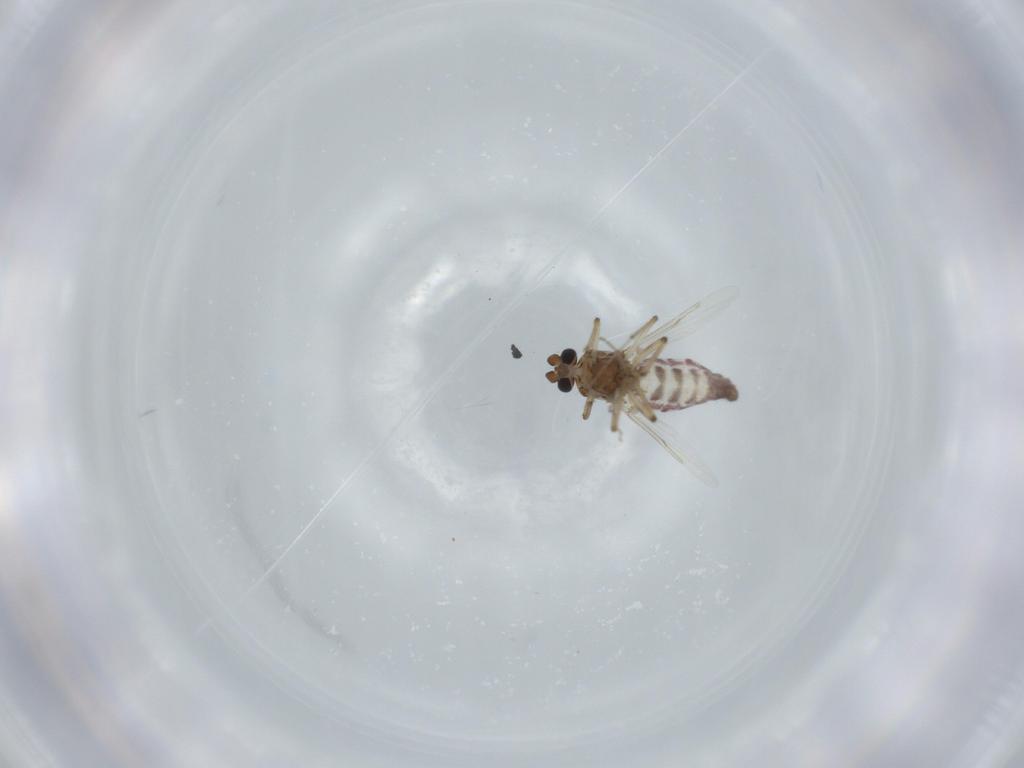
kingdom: Animalia
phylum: Arthropoda
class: Insecta
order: Diptera
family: Cecidomyiidae
